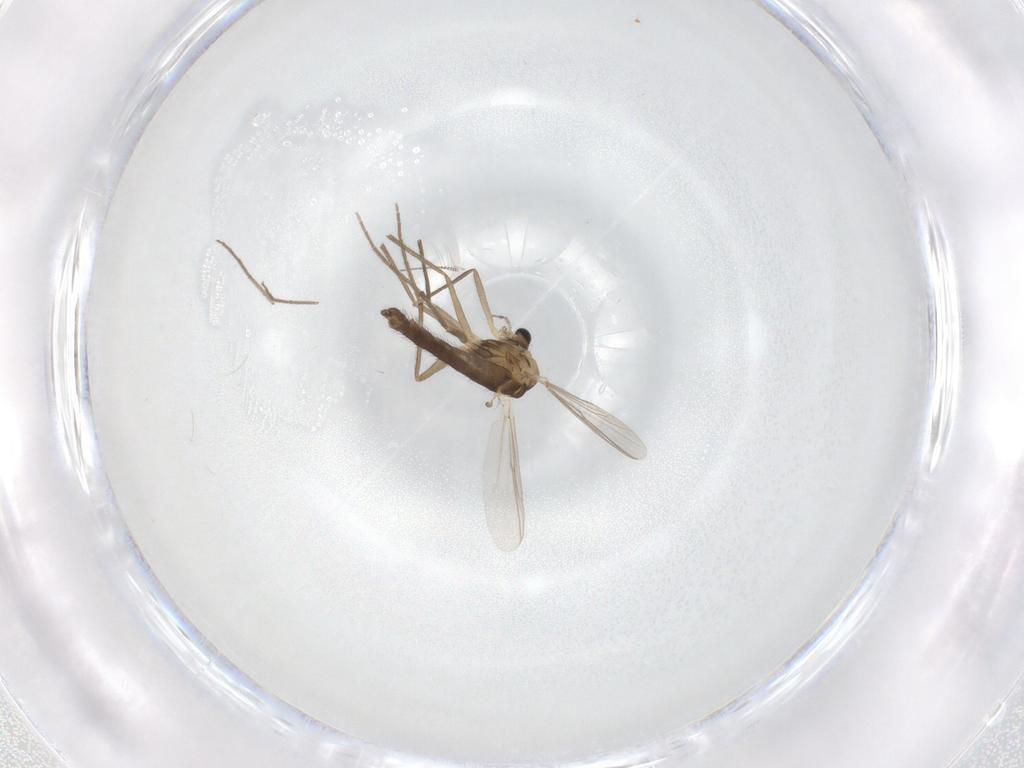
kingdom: Animalia
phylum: Arthropoda
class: Insecta
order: Diptera
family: Chironomidae
